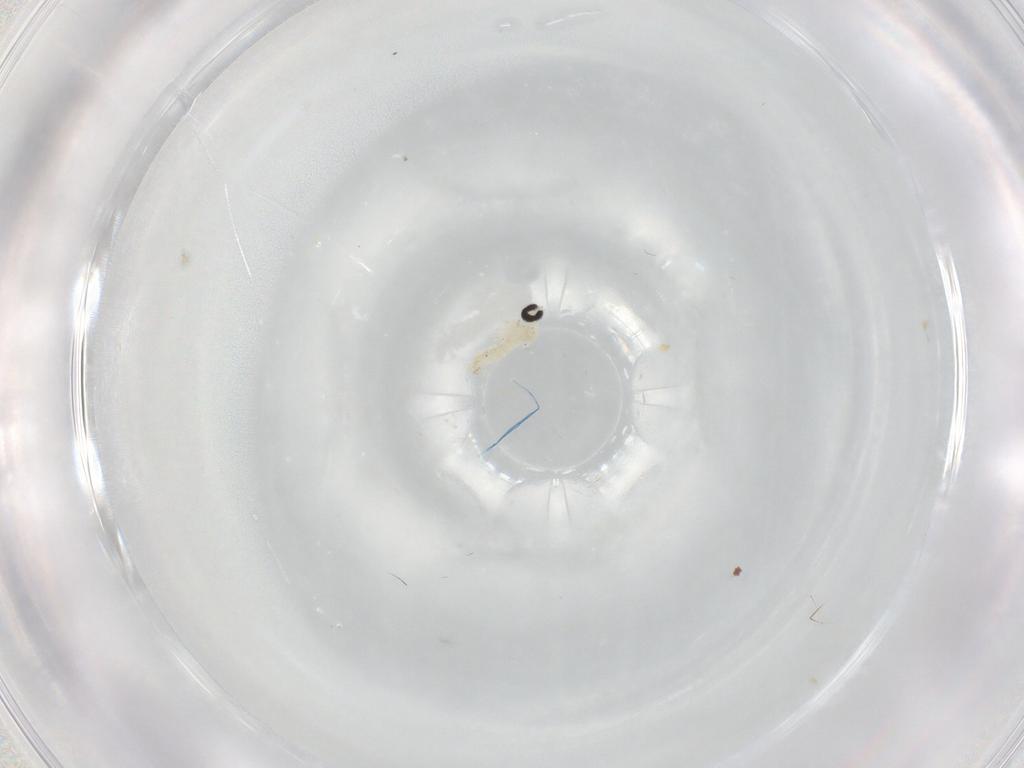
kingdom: Animalia
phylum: Arthropoda
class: Insecta
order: Diptera
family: Cecidomyiidae
